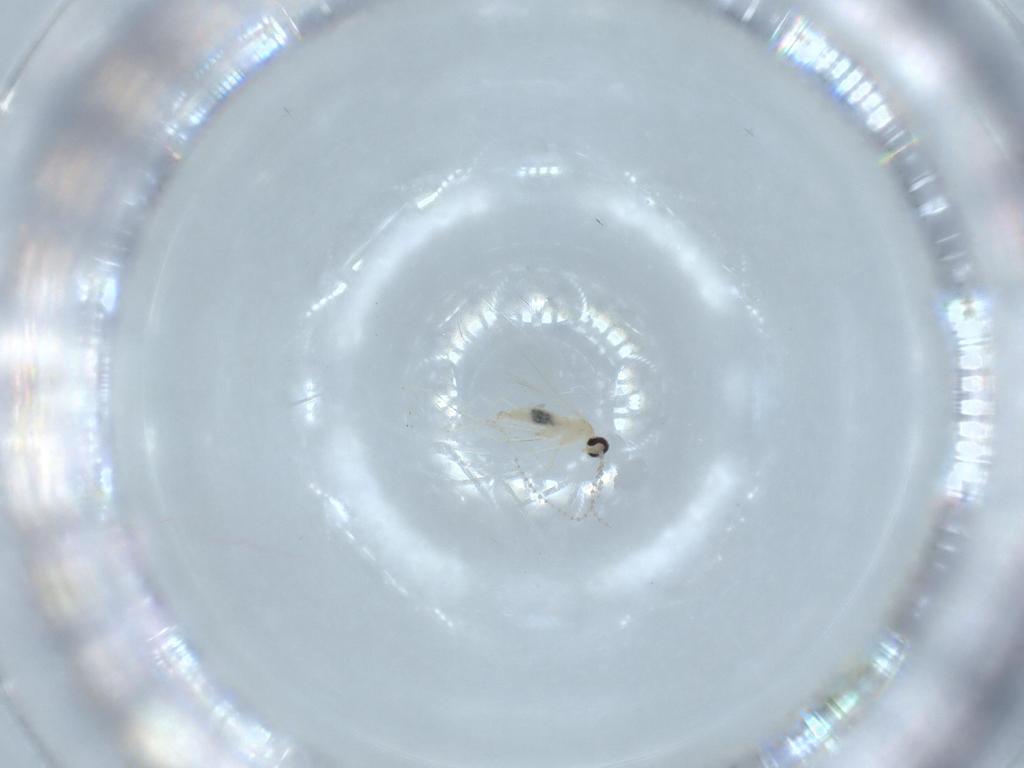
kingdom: Animalia
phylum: Arthropoda
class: Insecta
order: Diptera
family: Cecidomyiidae
